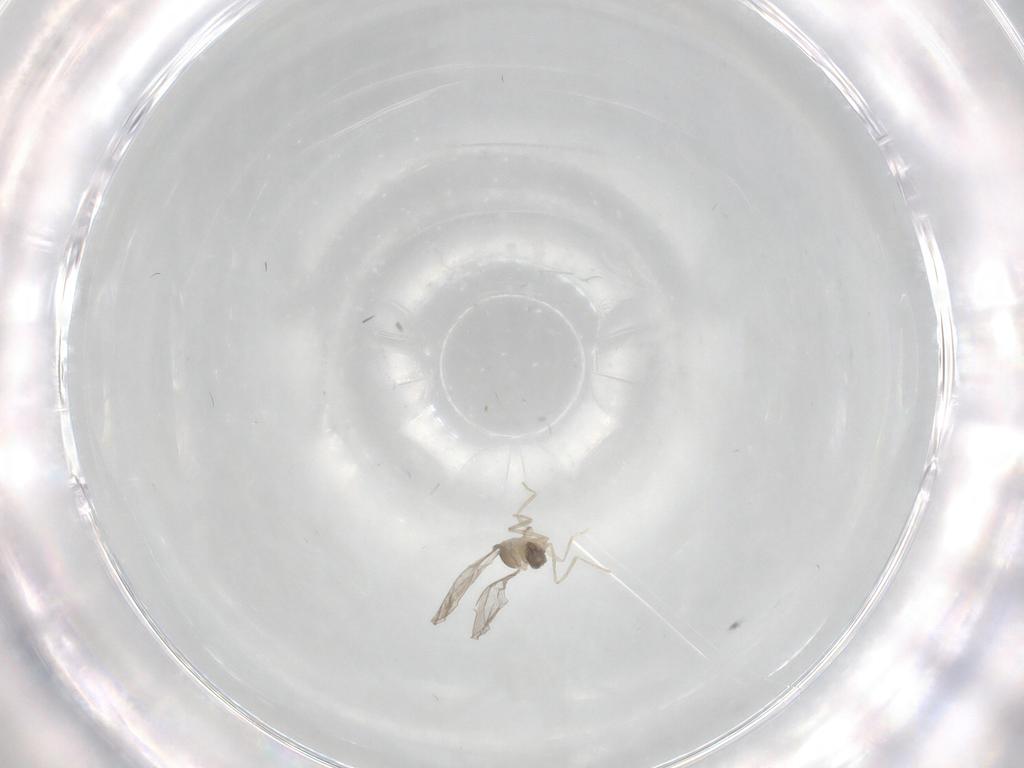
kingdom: Animalia
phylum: Arthropoda
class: Insecta
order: Diptera
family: Cecidomyiidae
